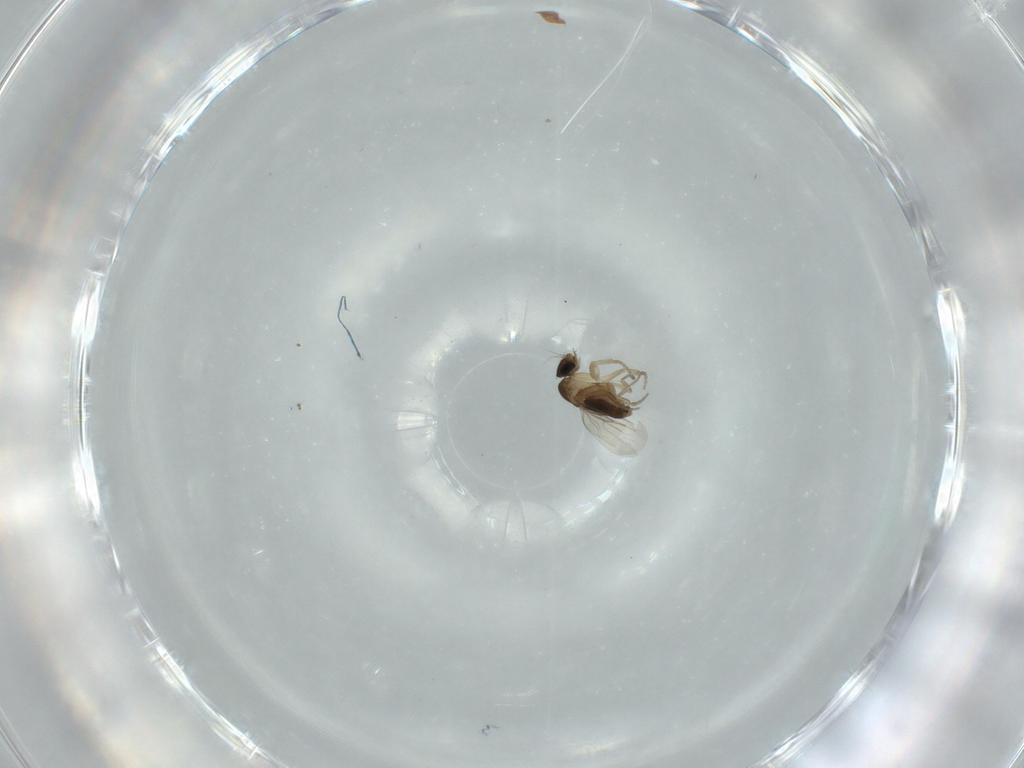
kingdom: Animalia
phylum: Arthropoda
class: Insecta
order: Diptera
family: Phoridae
